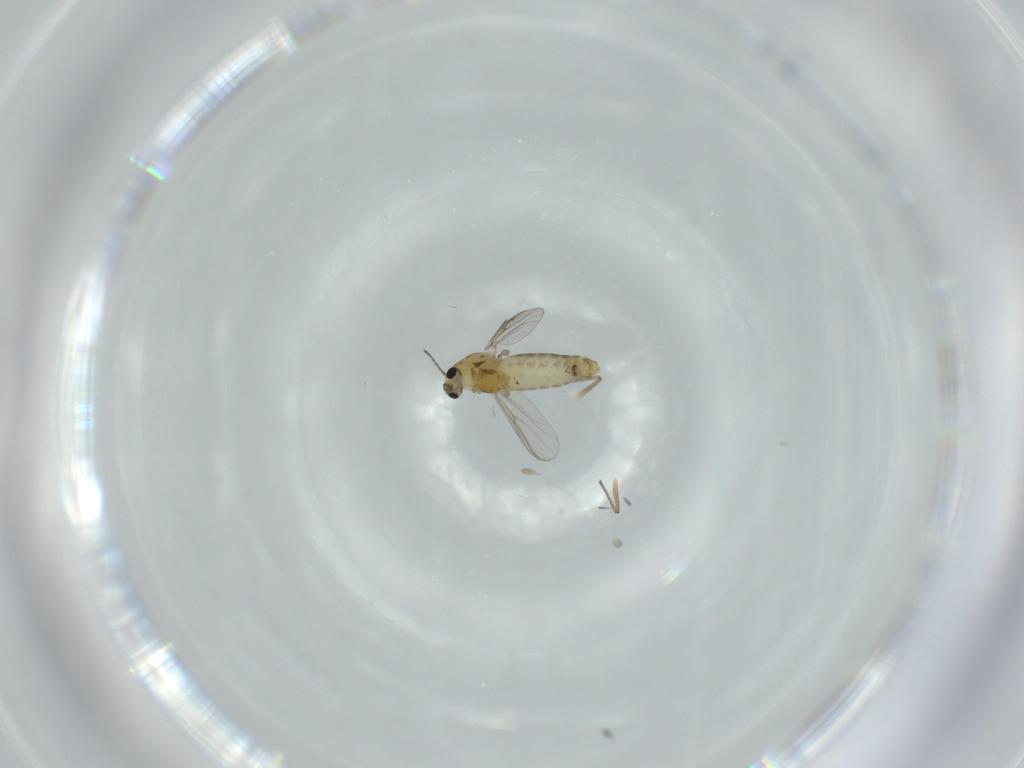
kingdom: Animalia
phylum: Arthropoda
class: Insecta
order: Diptera
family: Chironomidae
